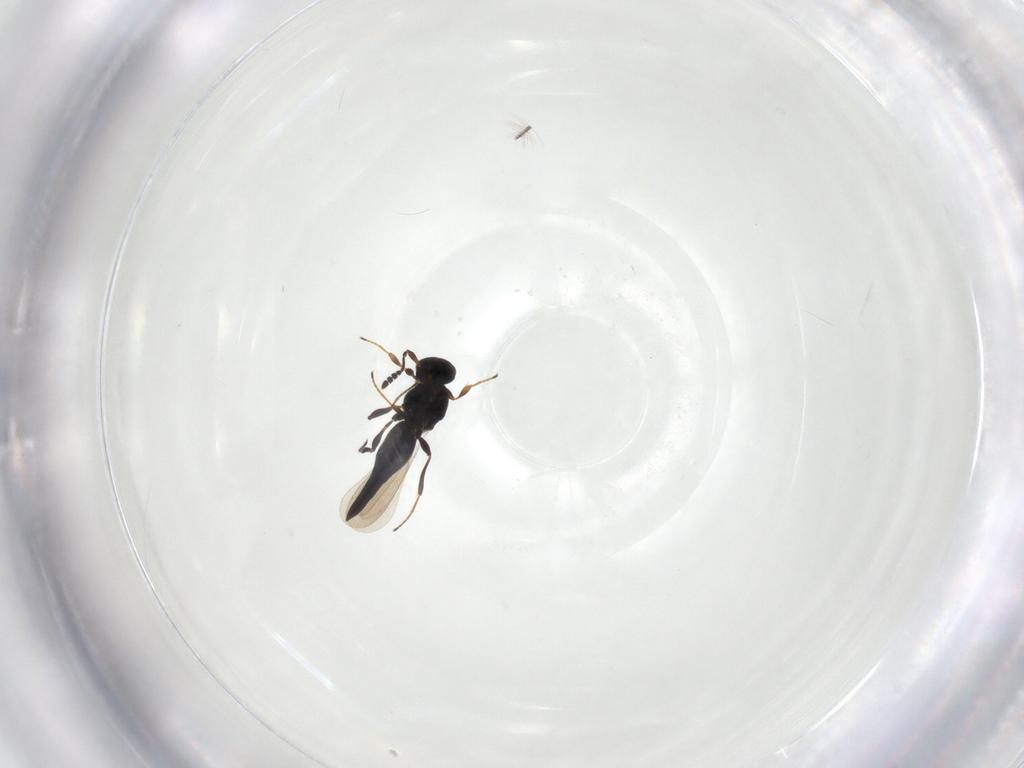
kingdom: Animalia
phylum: Arthropoda
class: Insecta
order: Hymenoptera
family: Platygastridae
